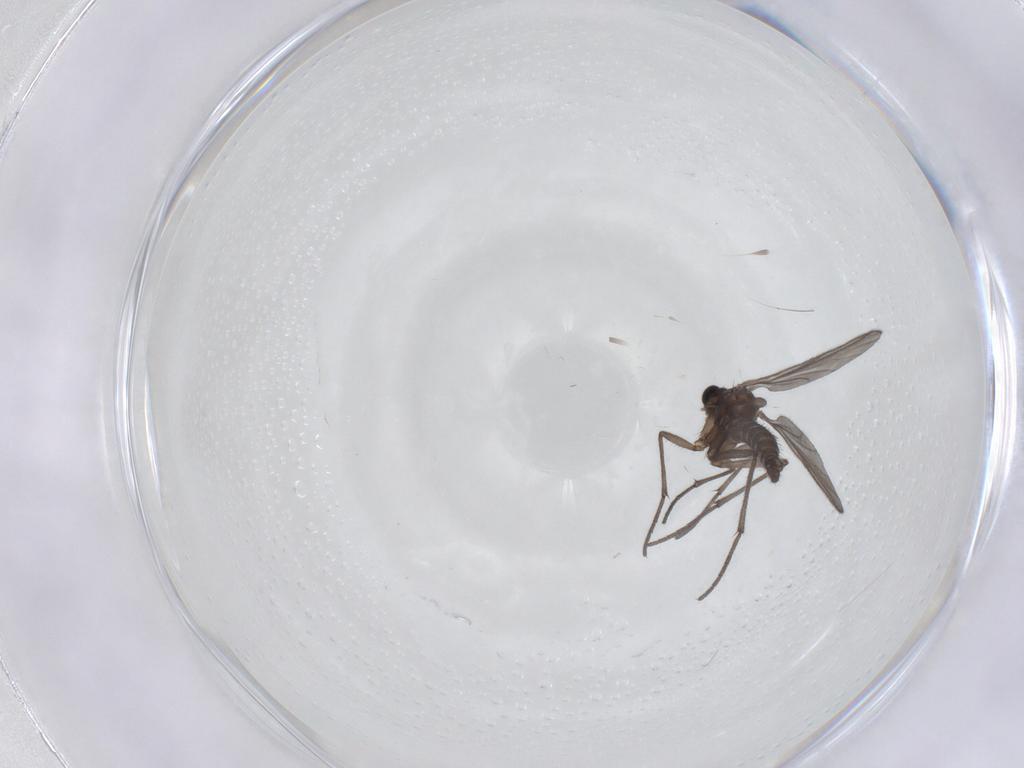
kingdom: Animalia
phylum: Arthropoda
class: Insecta
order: Diptera
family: Sciaridae
